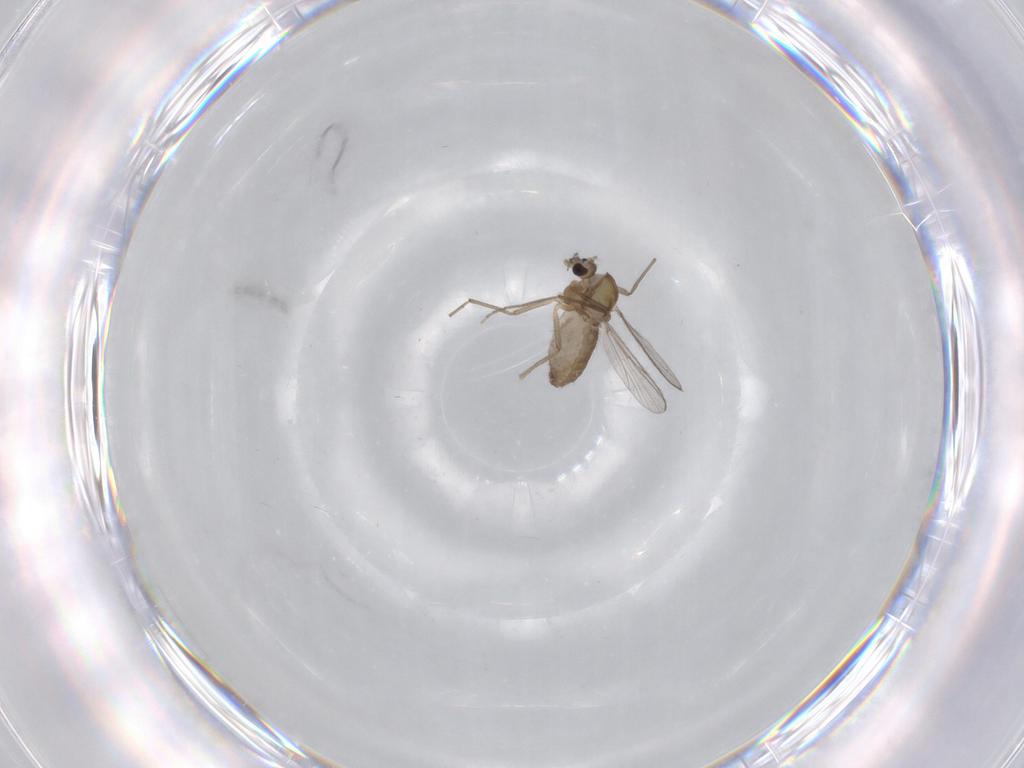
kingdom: Animalia
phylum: Arthropoda
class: Insecta
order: Diptera
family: Chironomidae
